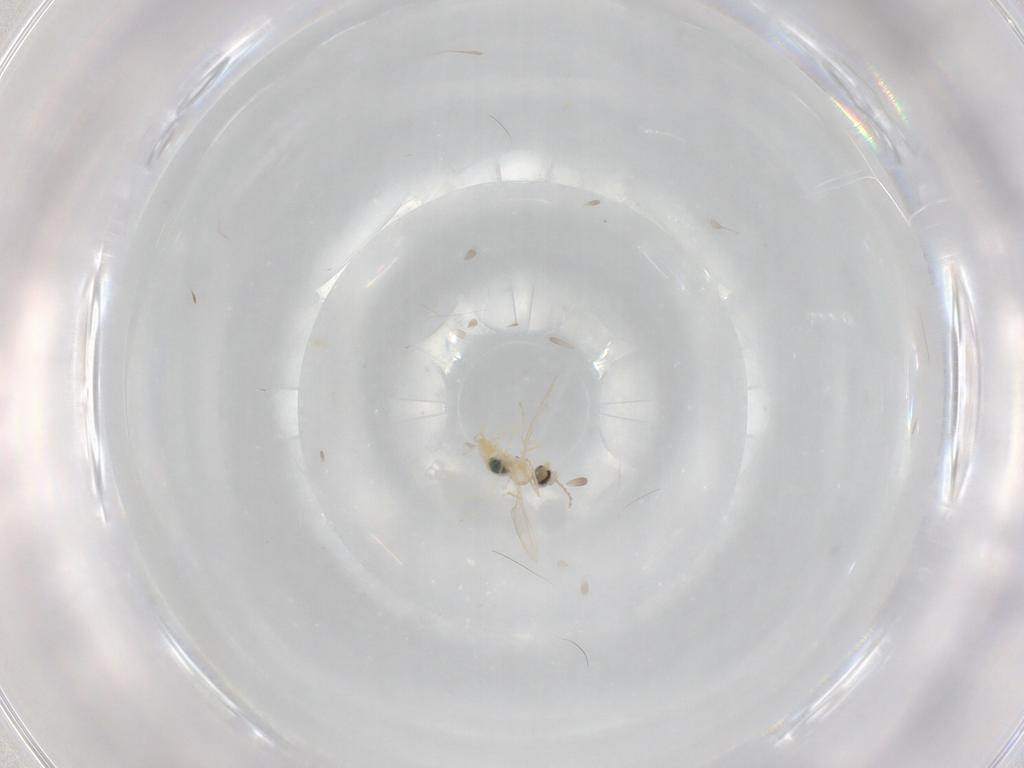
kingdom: Animalia
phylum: Arthropoda
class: Insecta
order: Diptera
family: Cecidomyiidae
